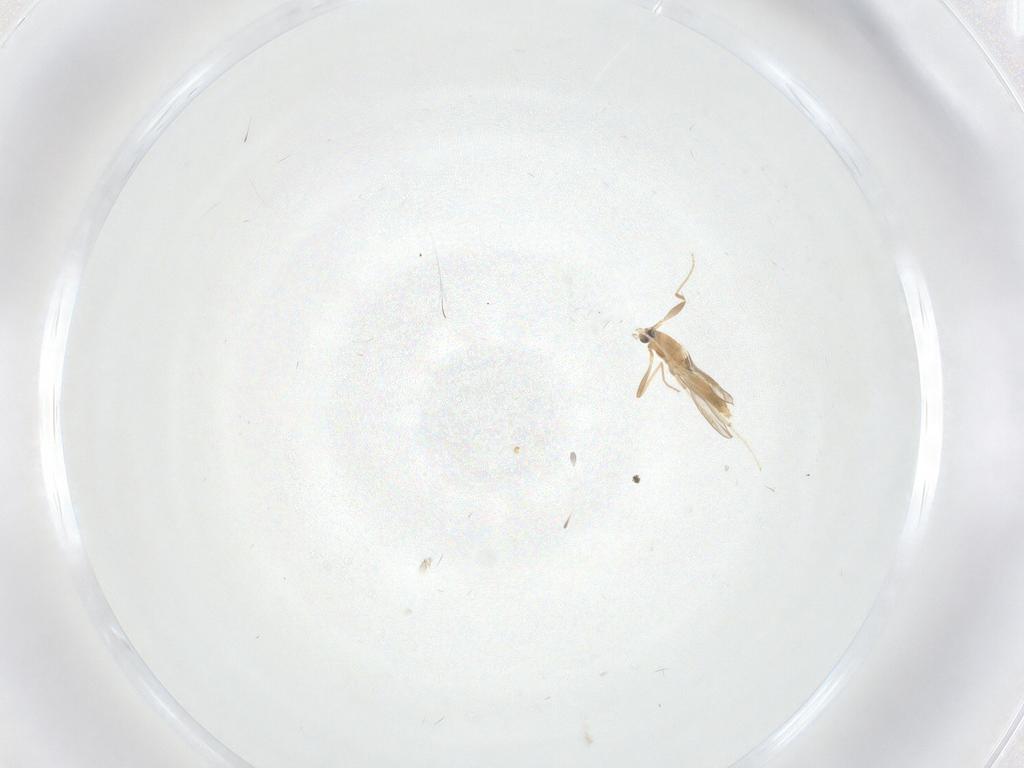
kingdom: Animalia
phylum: Arthropoda
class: Insecta
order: Diptera
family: Chironomidae
